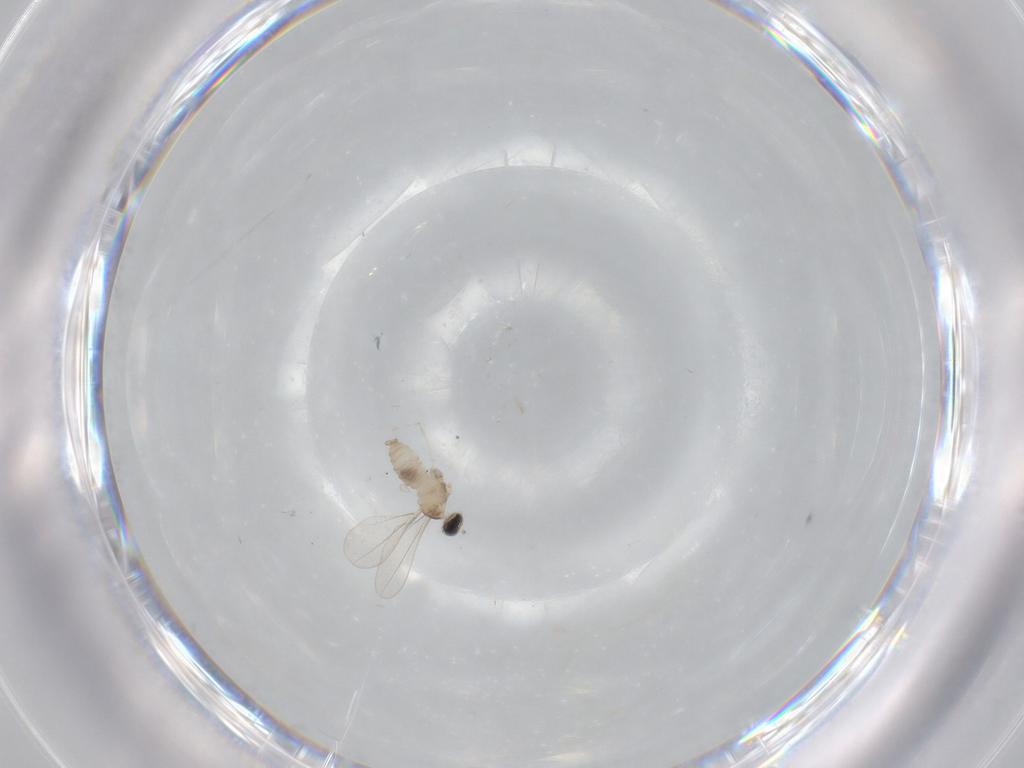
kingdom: Animalia
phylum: Arthropoda
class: Insecta
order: Diptera
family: Cecidomyiidae
